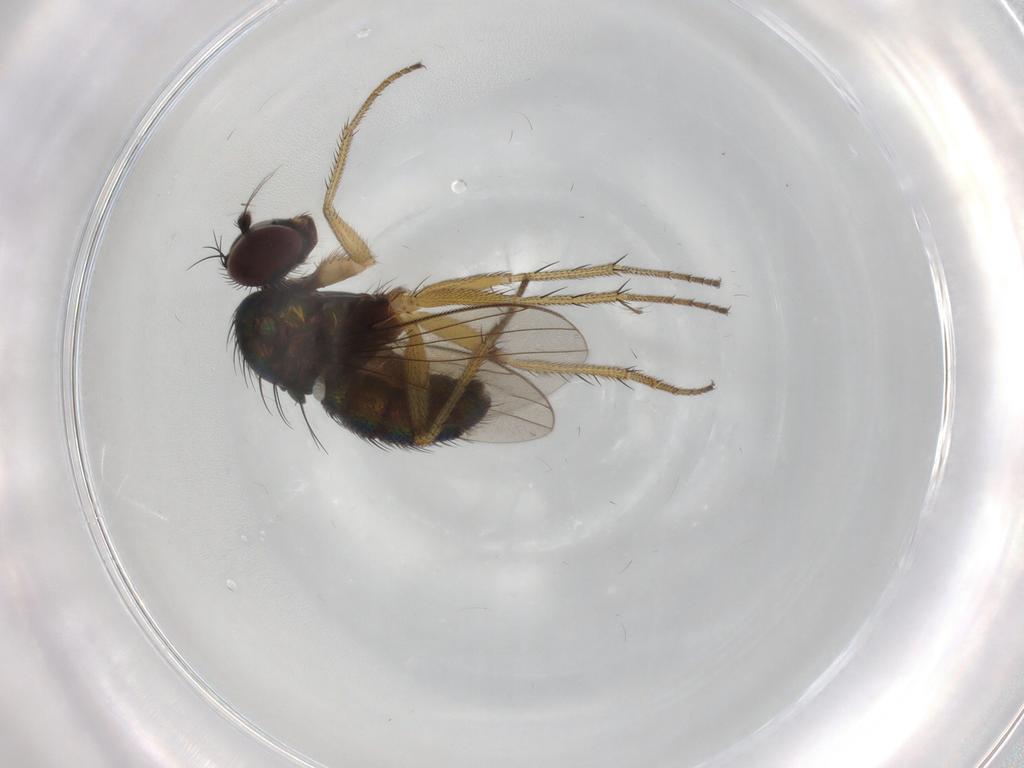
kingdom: Animalia
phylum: Arthropoda
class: Insecta
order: Diptera
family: Dolichopodidae
